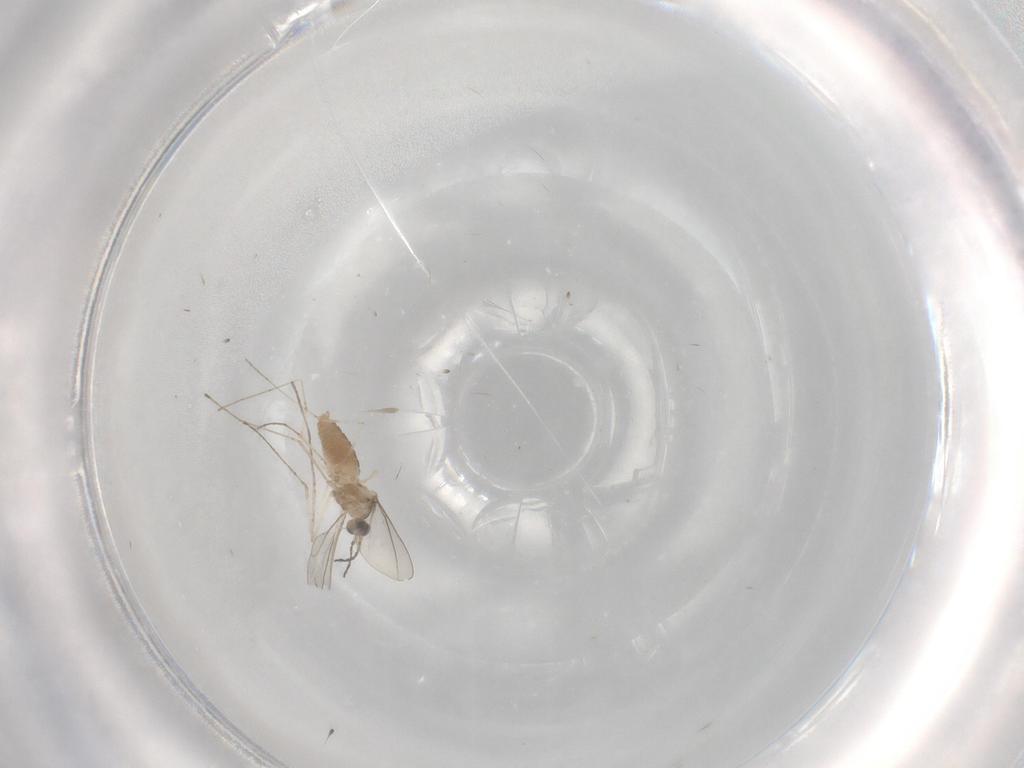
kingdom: Animalia
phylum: Arthropoda
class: Insecta
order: Diptera
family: Cecidomyiidae
